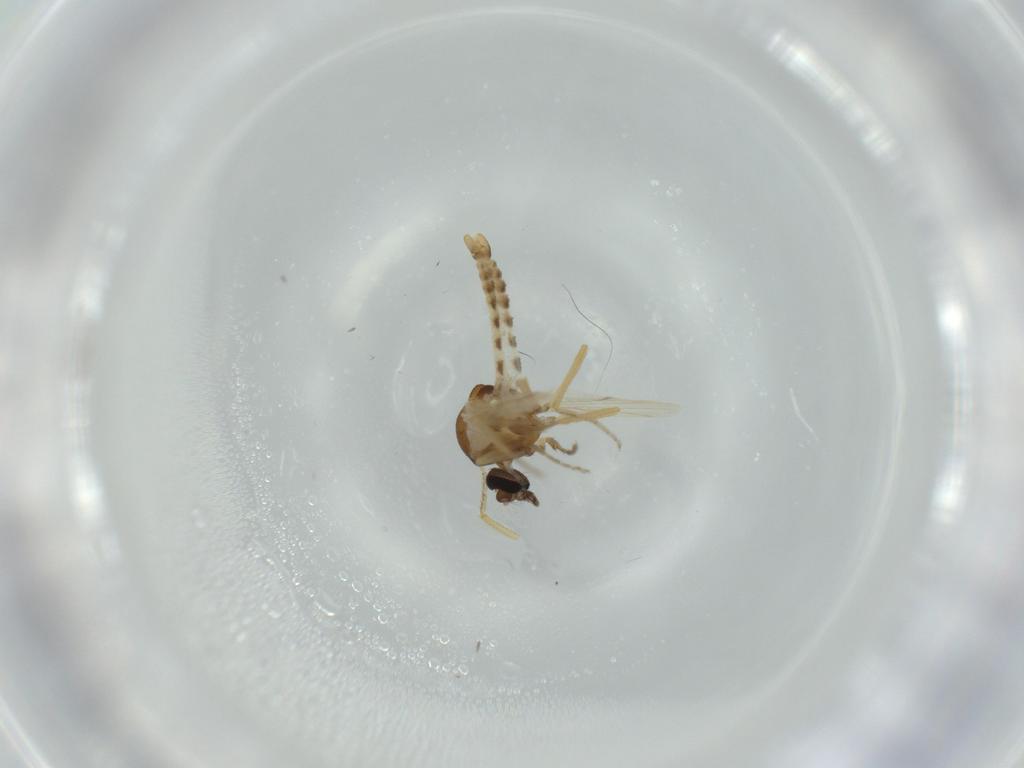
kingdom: Animalia
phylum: Arthropoda
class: Insecta
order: Diptera
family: Ceratopogonidae
